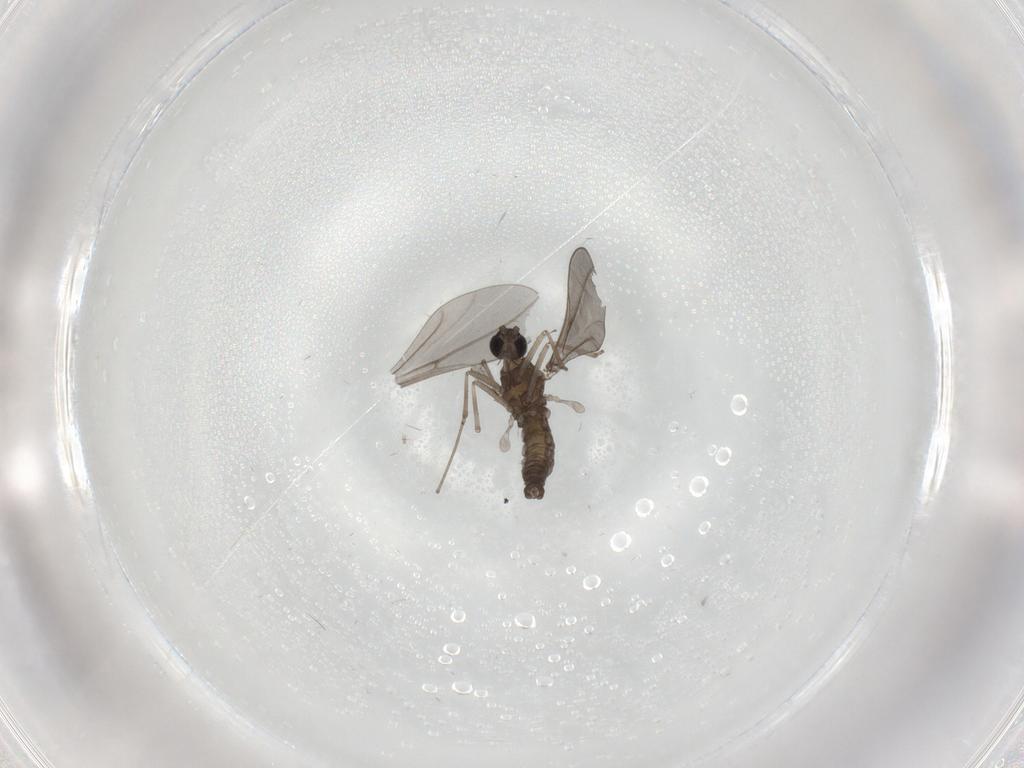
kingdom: Animalia
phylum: Arthropoda
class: Insecta
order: Diptera
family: Cecidomyiidae
